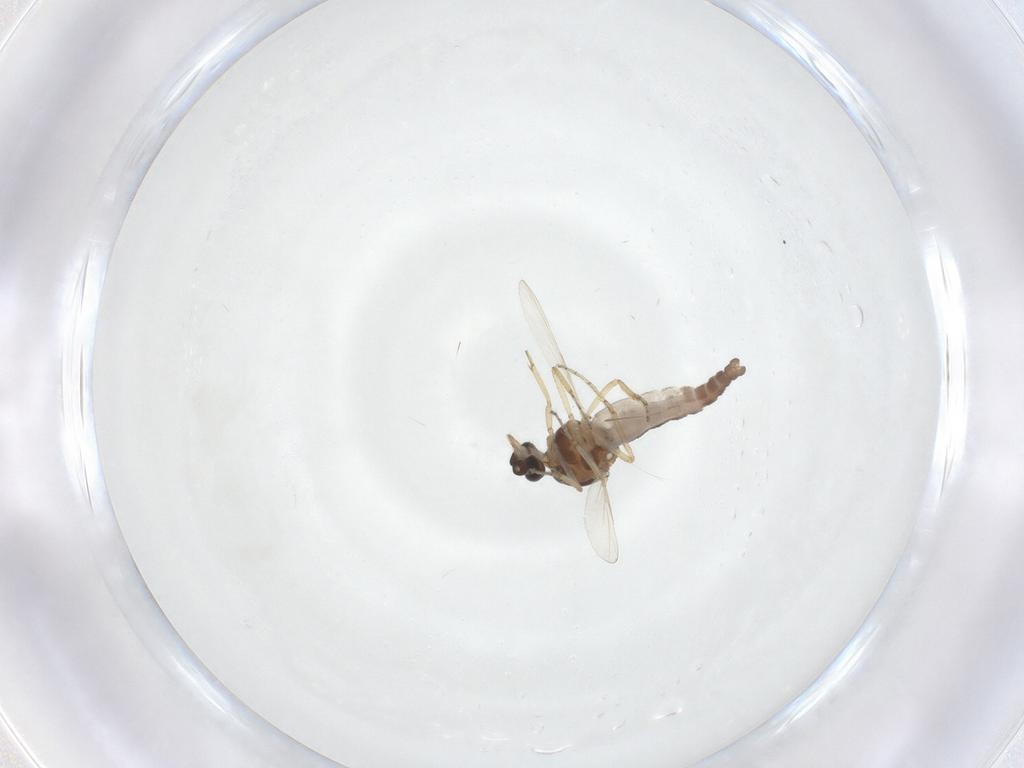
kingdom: Animalia
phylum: Arthropoda
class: Insecta
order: Diptera
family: Ceratopogonidae
